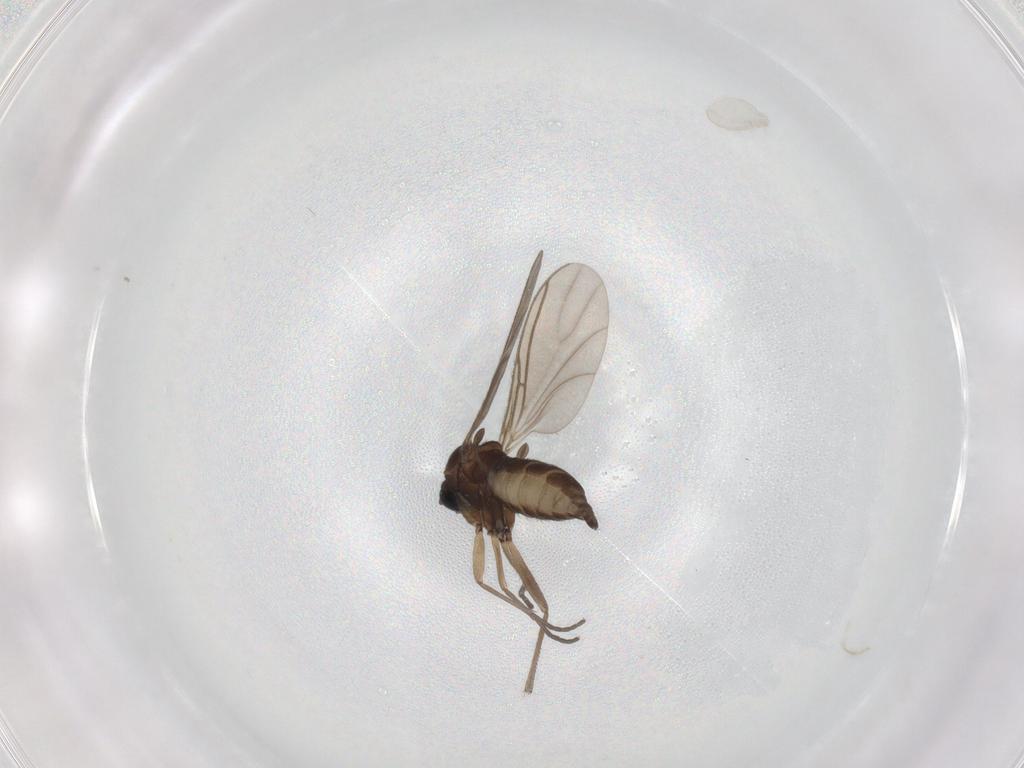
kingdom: Animalia
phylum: Arthropoda
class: Insecta
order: Diptera
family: Sciaridae
